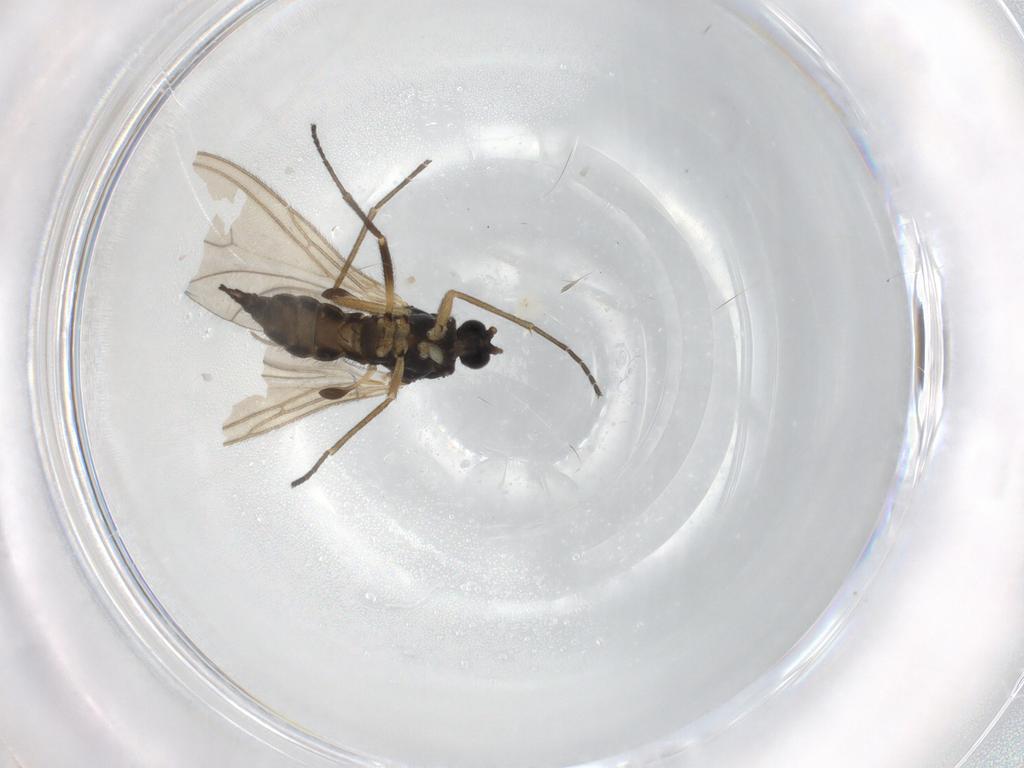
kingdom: Animalia
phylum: Arthropoda
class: Insecta
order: Diptera
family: Sciaridae
